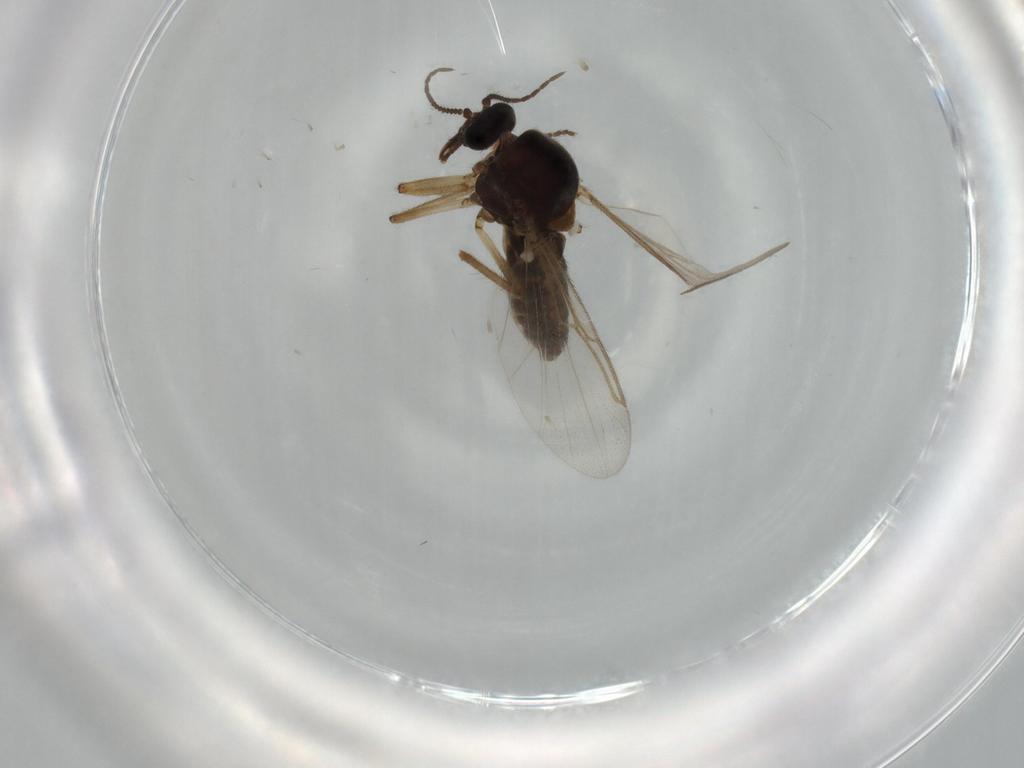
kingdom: Animalia
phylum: Arthropoda
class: Insecta
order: Diptera
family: Ceratopogonidae
